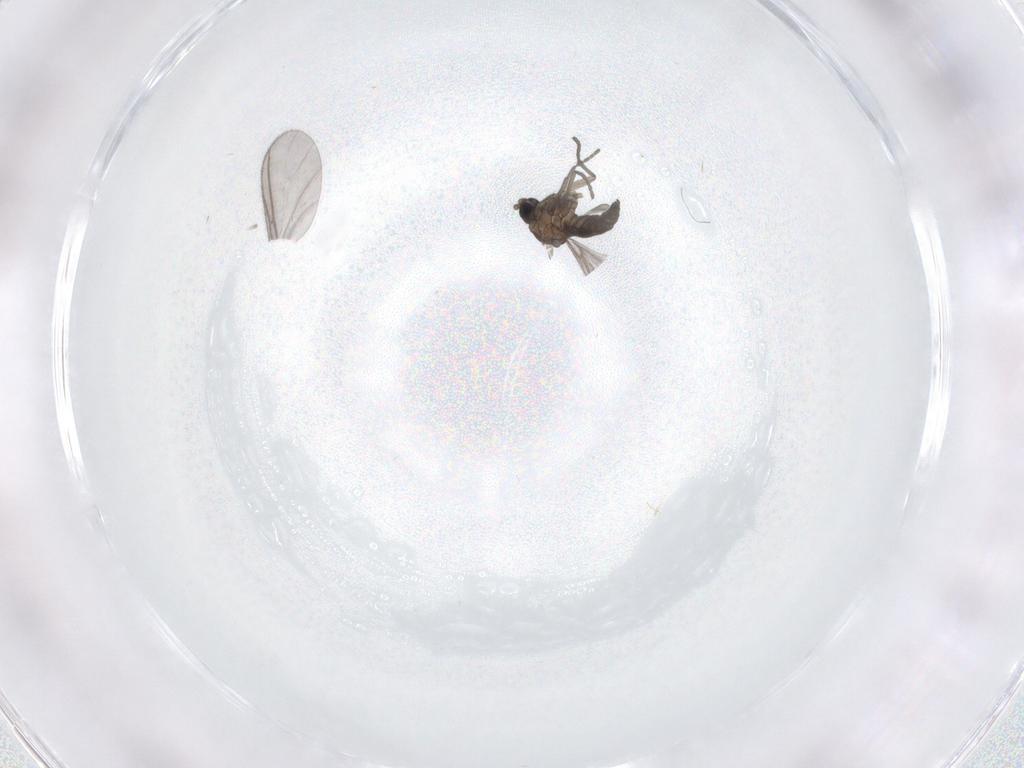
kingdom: Animalia
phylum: Arthropoda
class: Insecta
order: Diptera
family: Sciaridae
